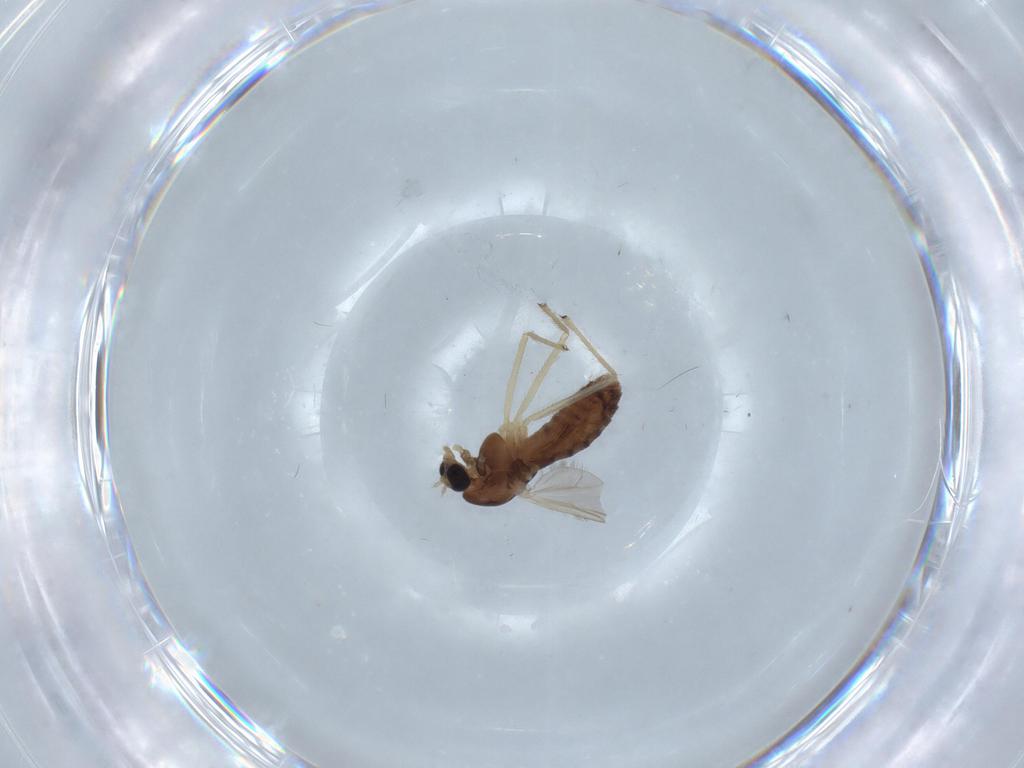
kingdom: Animalia
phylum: Arthropoda
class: Insecta
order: Diptera
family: Chironomidae
